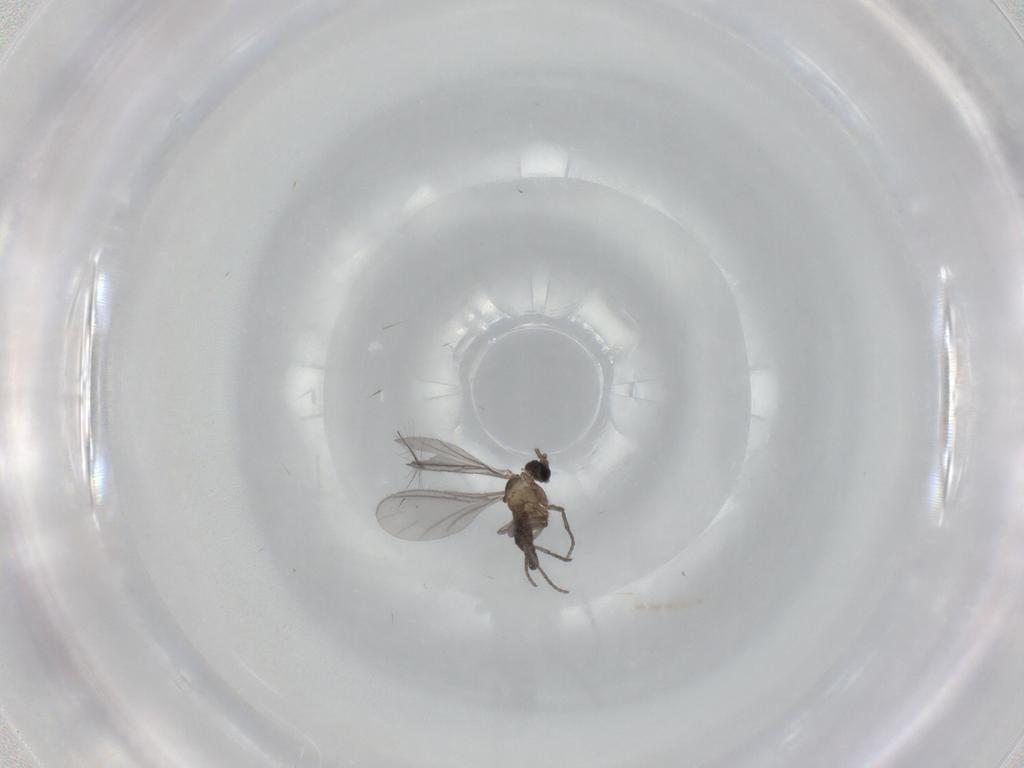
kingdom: Animalia
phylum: Arthropoda
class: Insecta
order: Diptera
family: Sciaridae
